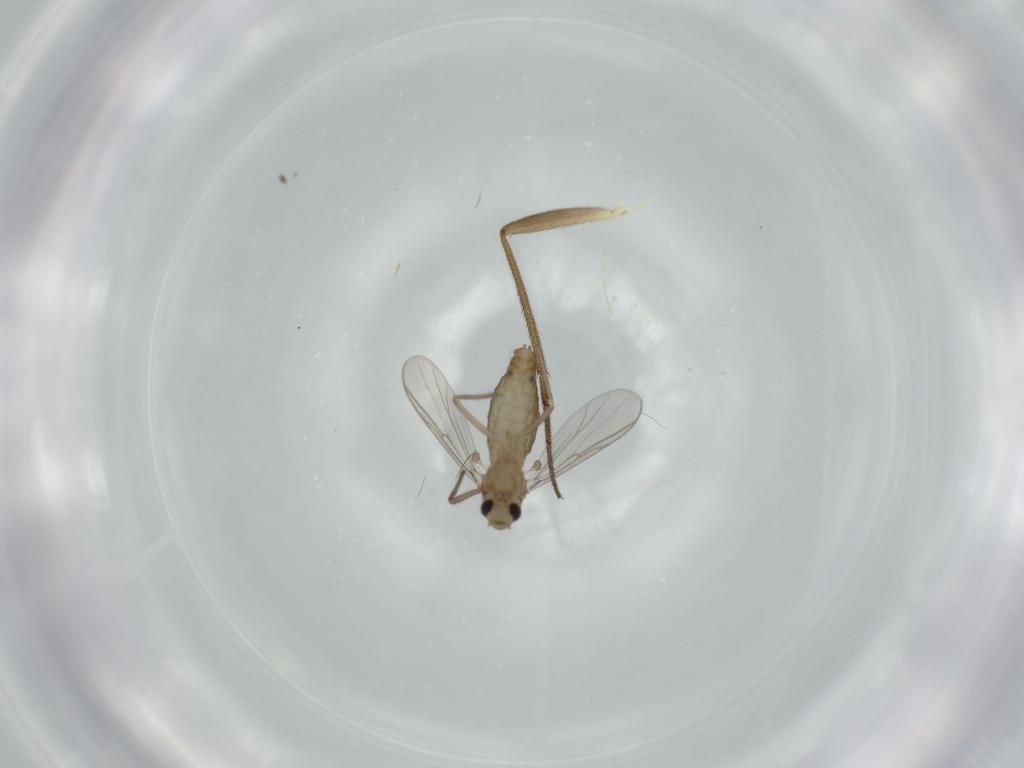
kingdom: Animalia
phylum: Arthropoda
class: Insecta
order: Diptera
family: Chironomidae
